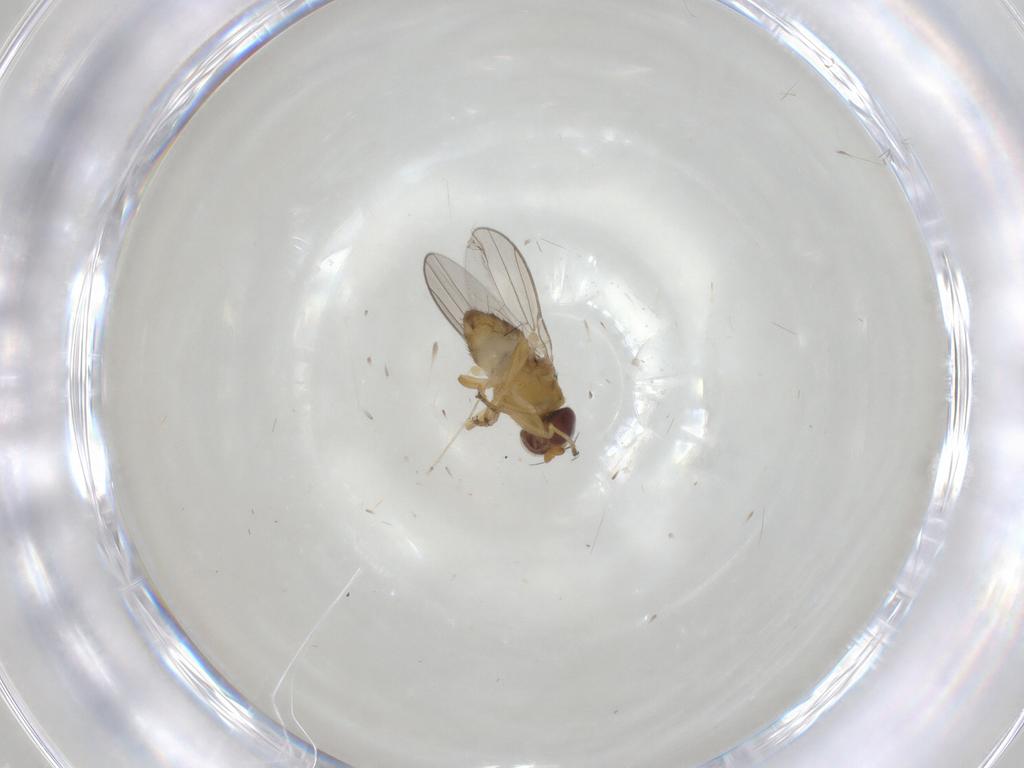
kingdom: Animalia
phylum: Arthropoda
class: Insecta
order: Diptera
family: Chloropidae
